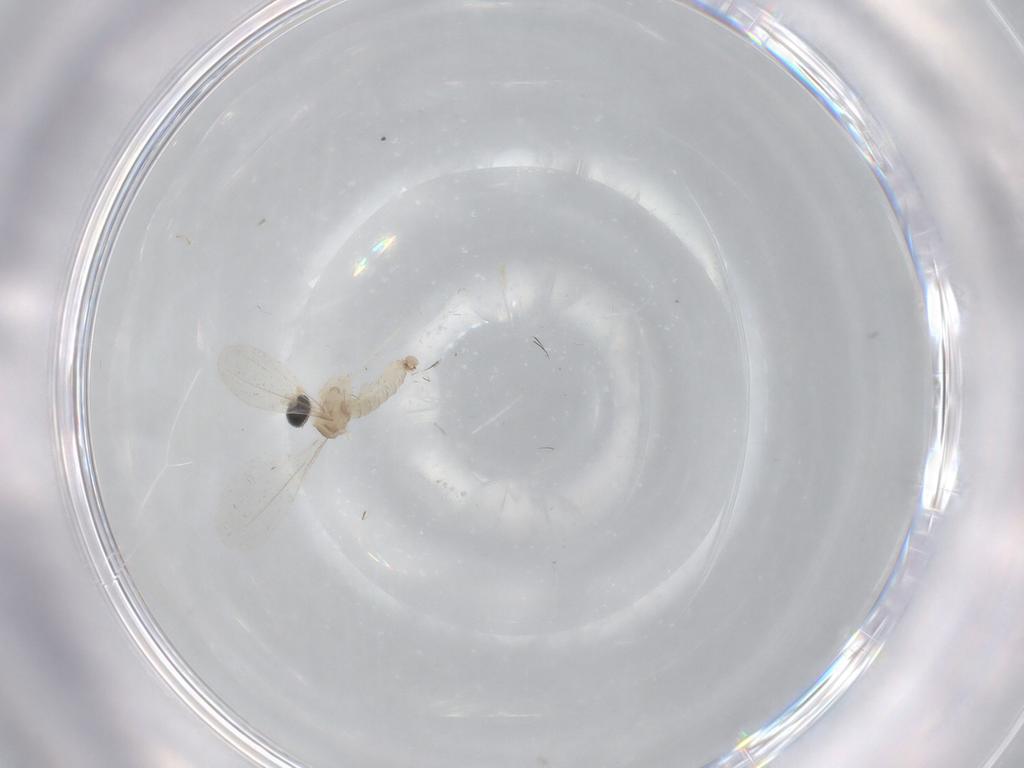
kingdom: Animalia
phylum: Arthropoda
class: Insecta
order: Diptera
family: Cecidomyiidae
